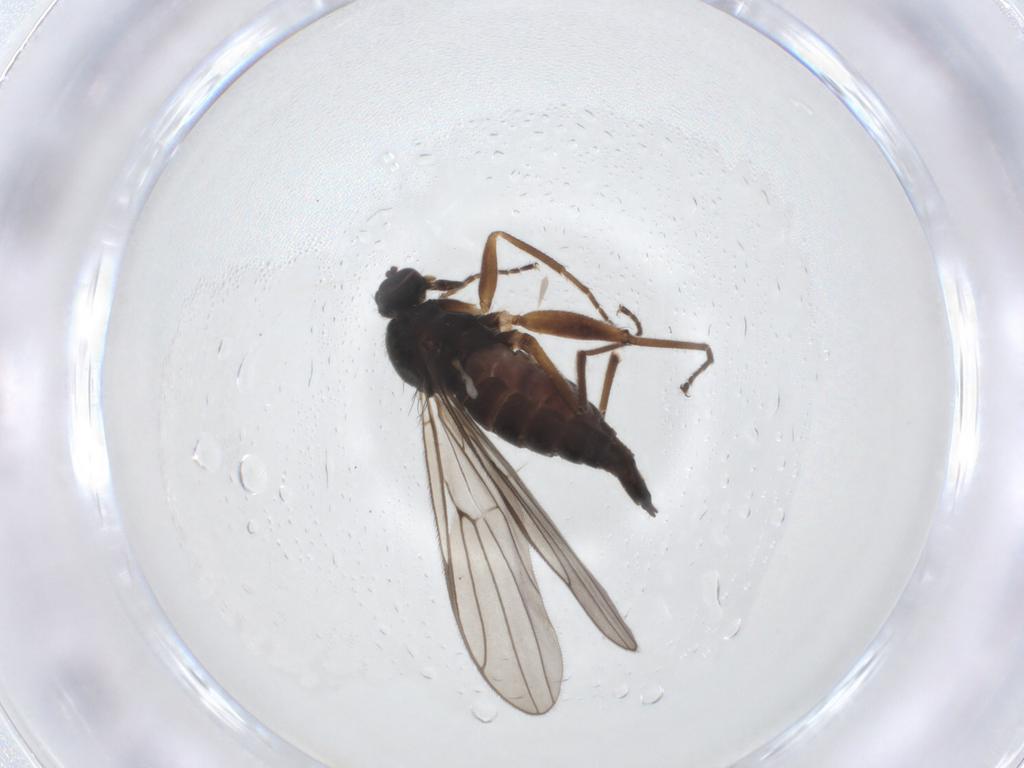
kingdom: Animalia
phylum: Arthropoda
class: Insecta
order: Diptera
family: Hybotidae
